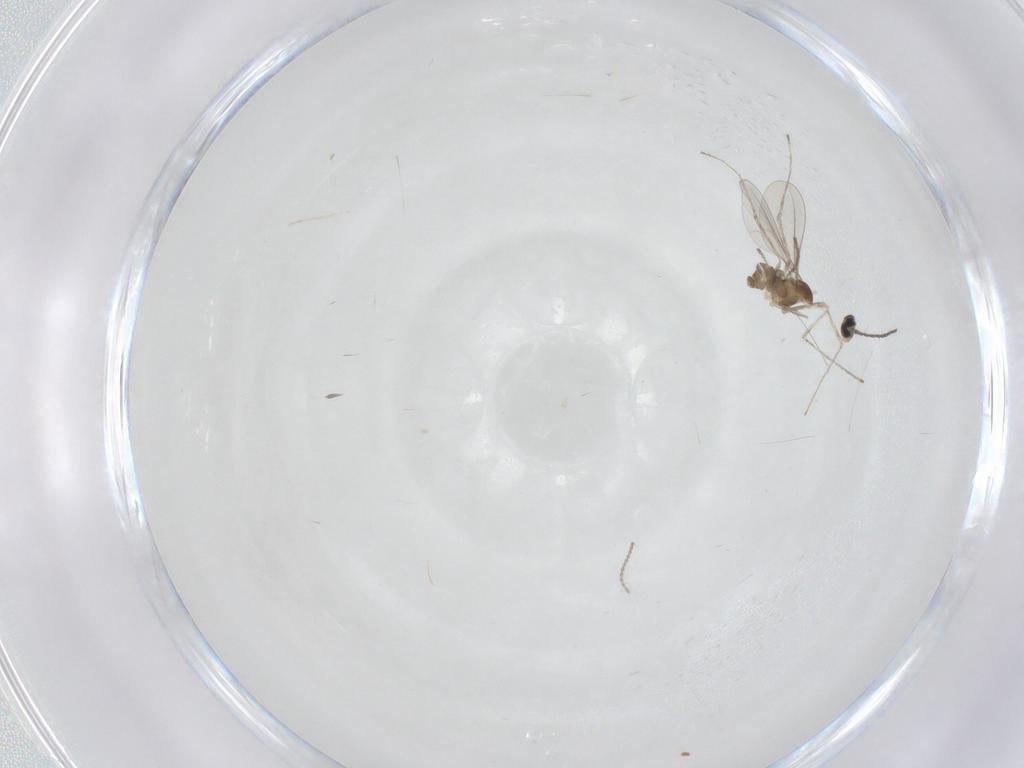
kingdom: Animalia
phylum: Arthropoda
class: Insecta
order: Diptera
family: Cecidomyiidae
